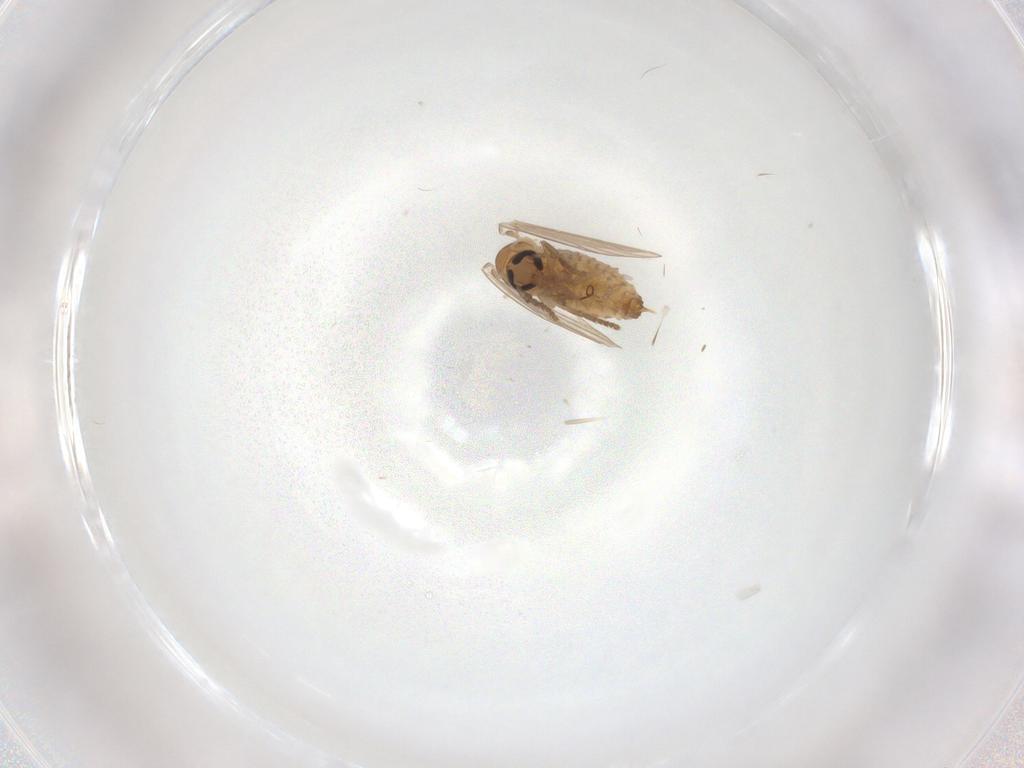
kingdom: Animalia
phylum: Arthropoda
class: Insecta
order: Diptera
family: Psychodidae
